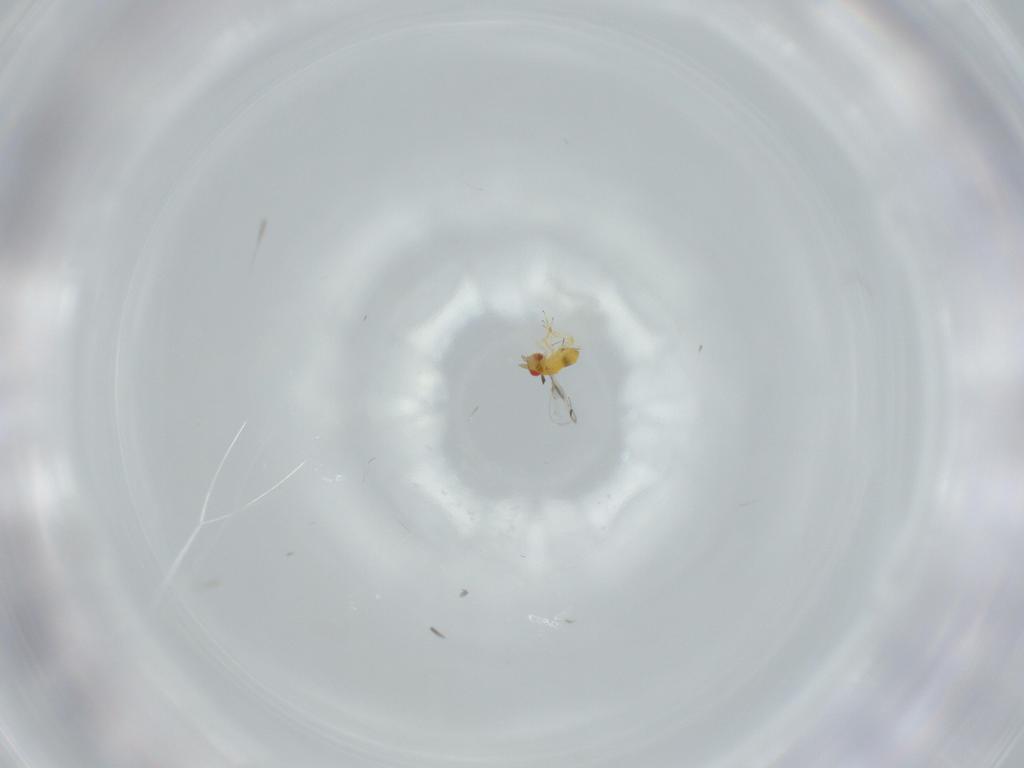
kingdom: Animalia
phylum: Arthropoda
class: Insecta
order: Hymenoptera
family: Trichogrammatidae
